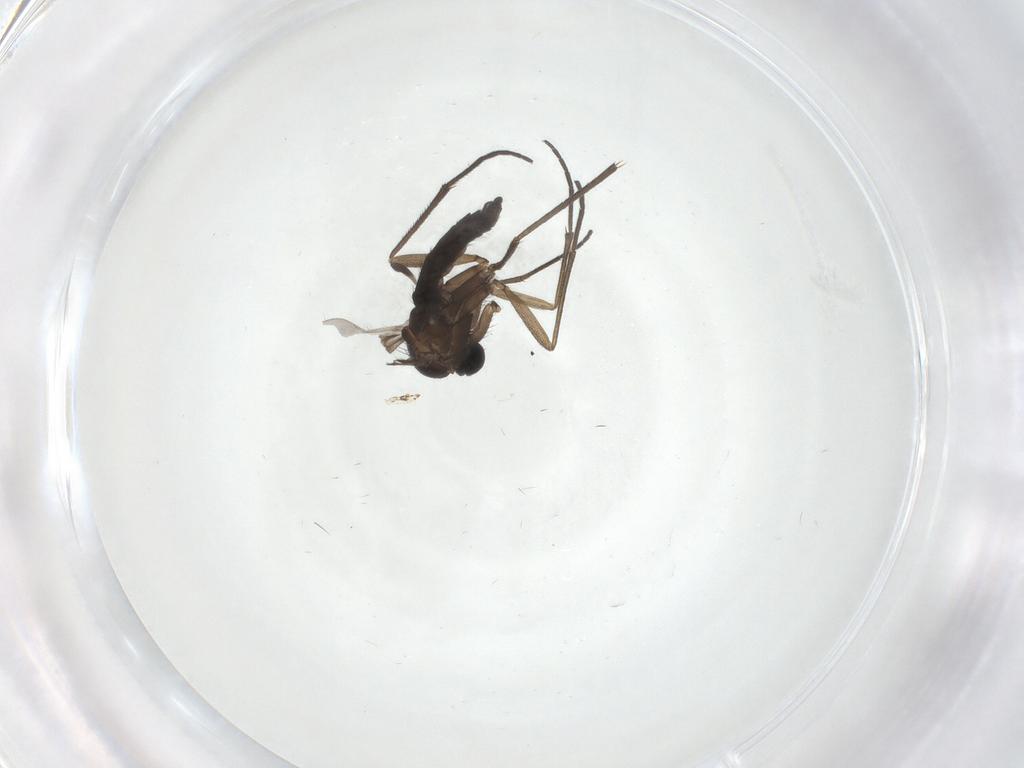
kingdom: Animalia
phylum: Arthropoda
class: Insecta
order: Diptera
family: Sciaridae
